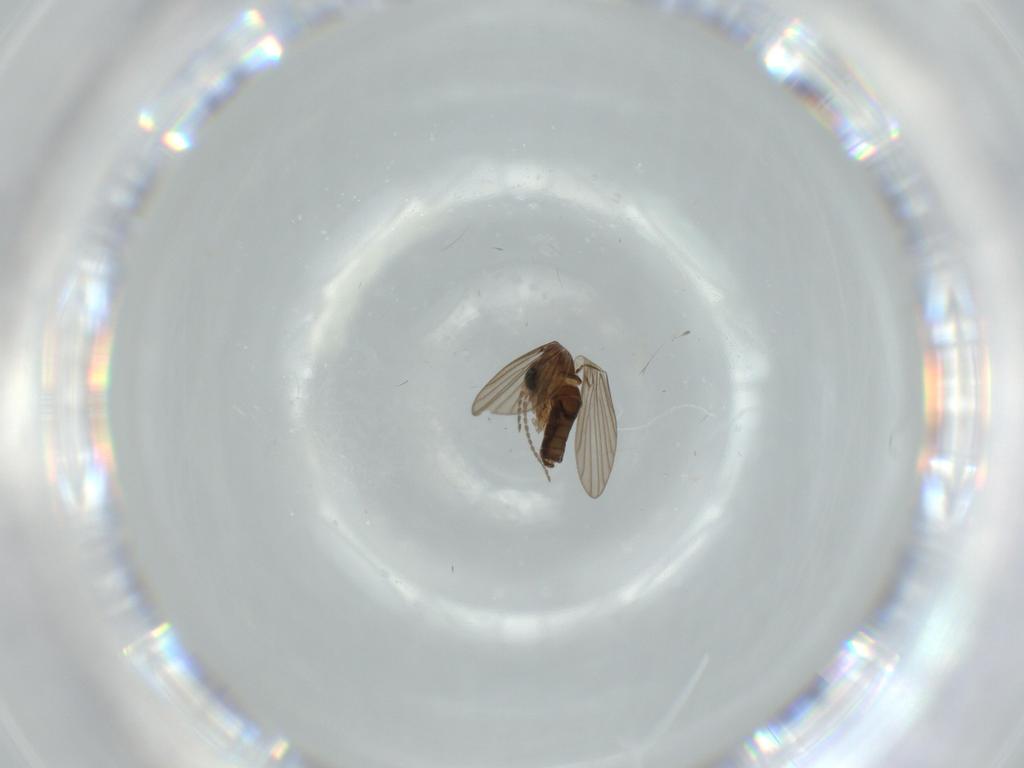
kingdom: Animalia
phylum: Arthropoda
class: Insecta
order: Diptera
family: Psychodidae
